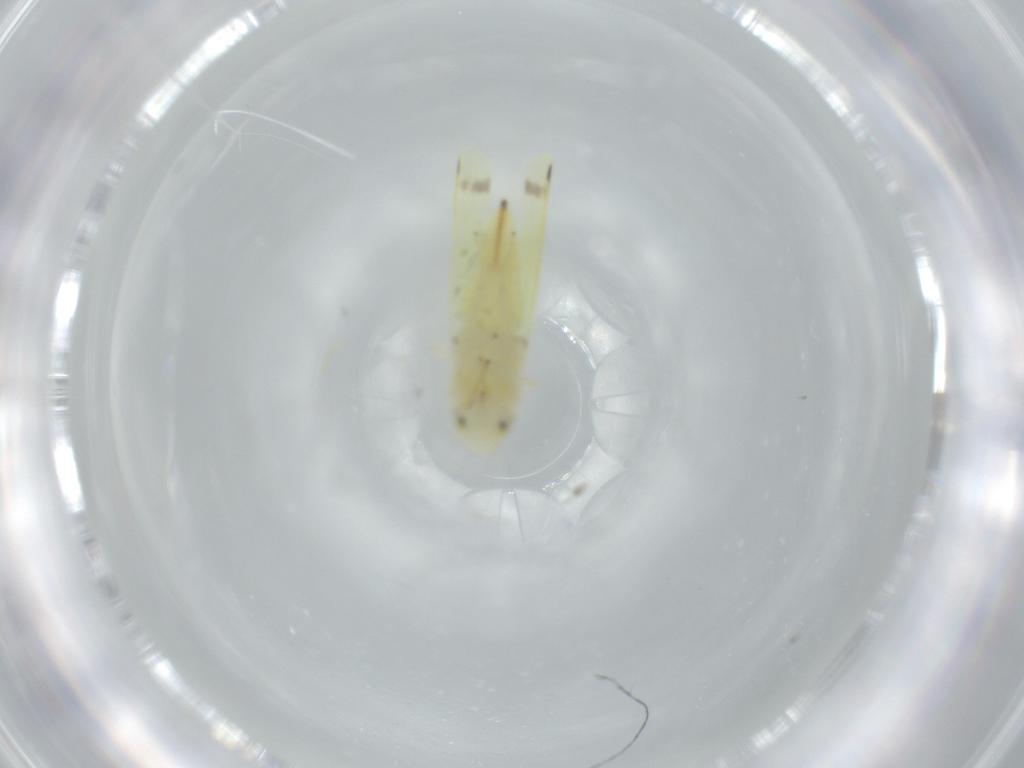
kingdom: Animalia
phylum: Arthropoda
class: Insecta
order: Hemiptera
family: Cicadellidae
